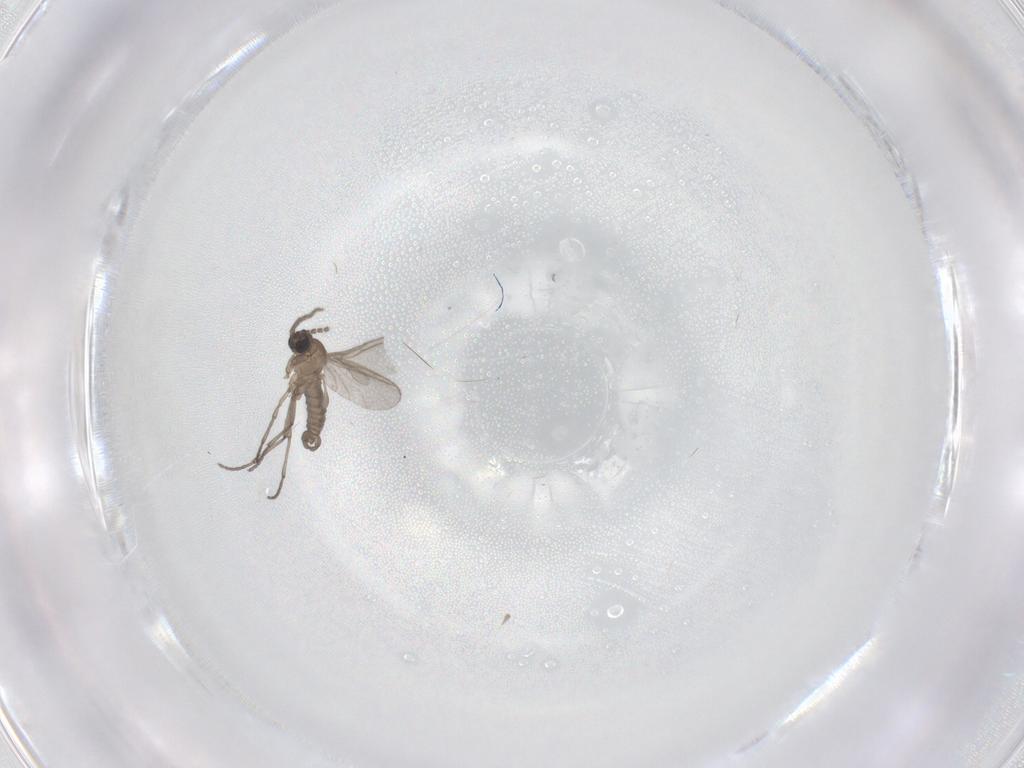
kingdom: Animalia
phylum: Arthropoda
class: Insecta
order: Diptera
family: Sciaridae
